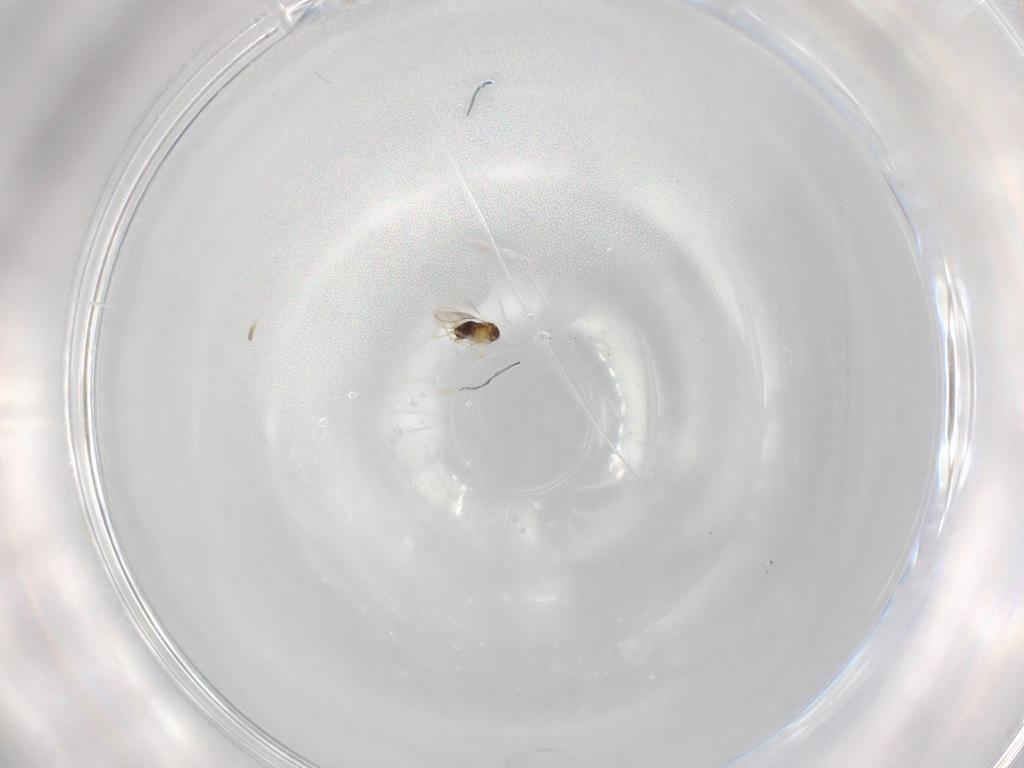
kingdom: Animalia
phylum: Arthropoda
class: Insecta
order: Hymenoptera
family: Aphelinidae
